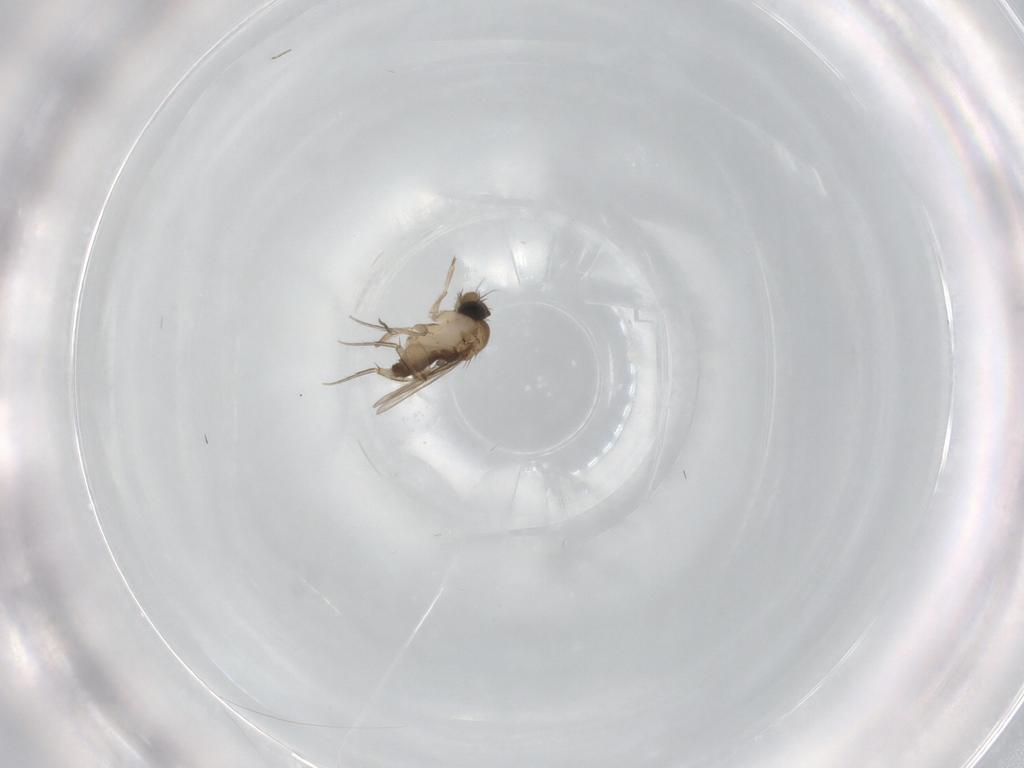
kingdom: Animalia
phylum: Arthropoda
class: Insecta
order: Diptera
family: Phoridae
